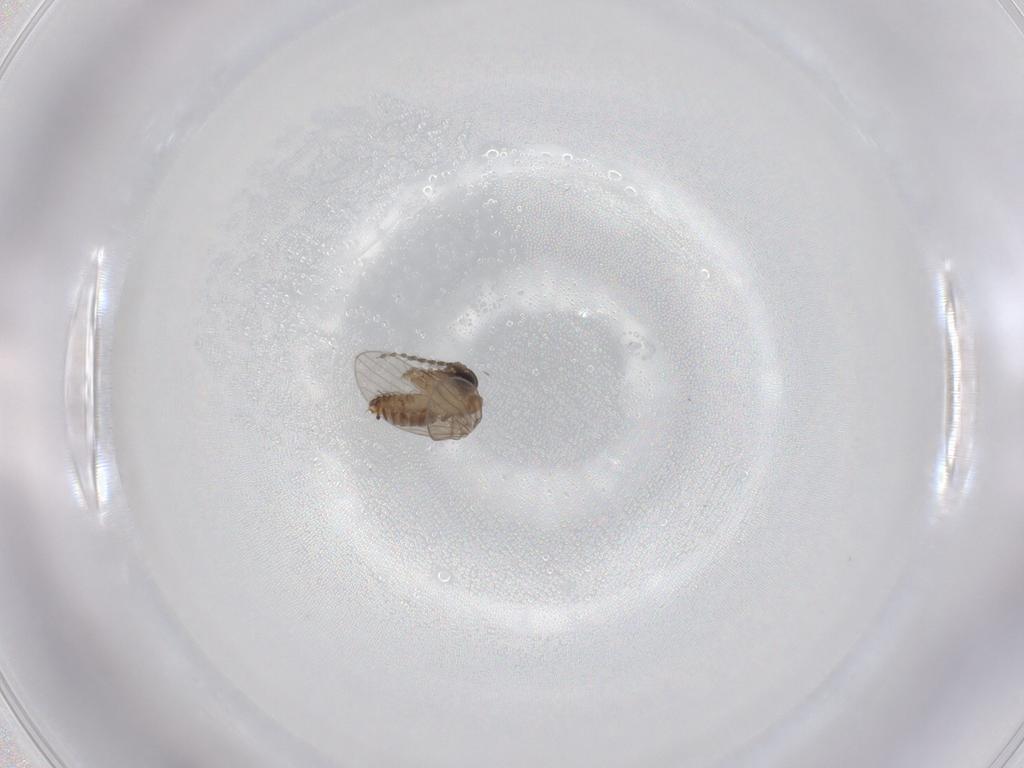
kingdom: Animalia
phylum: Arthropoda
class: Insecta
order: Diptera
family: Psychodidae
